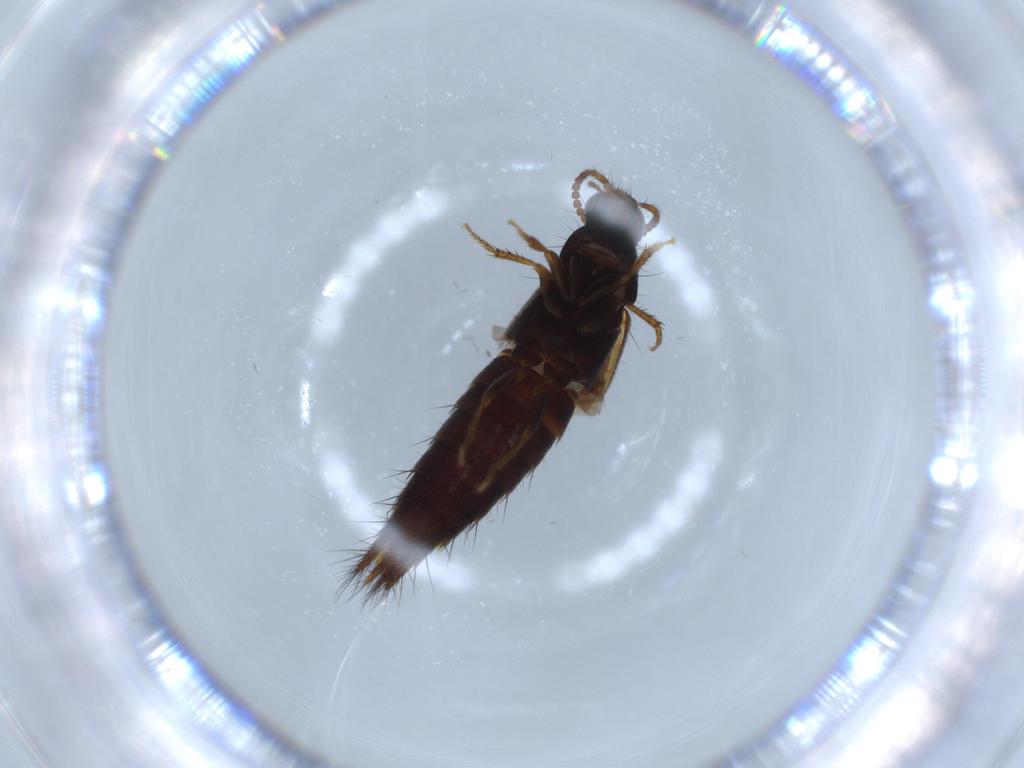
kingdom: Animalia
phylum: Arthropoda
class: Insecta
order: Coleoptera
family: Staphylinidae
